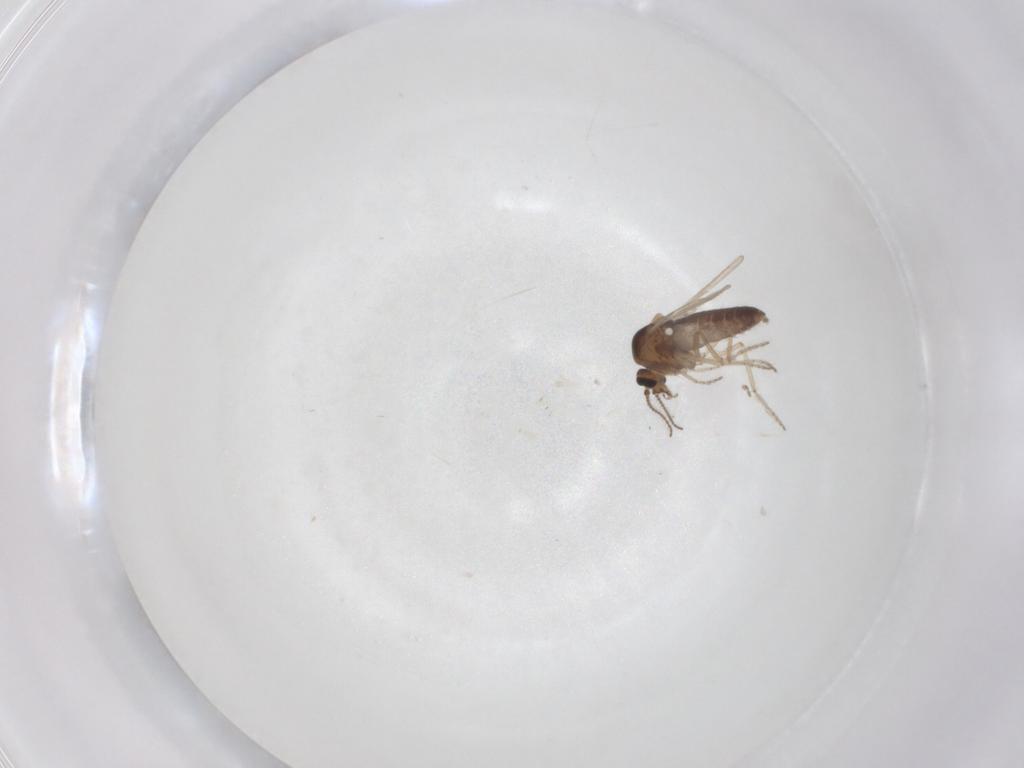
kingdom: Animalia
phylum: Arthropoda
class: Insecta
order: Diptera
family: Ceratopogonidae
